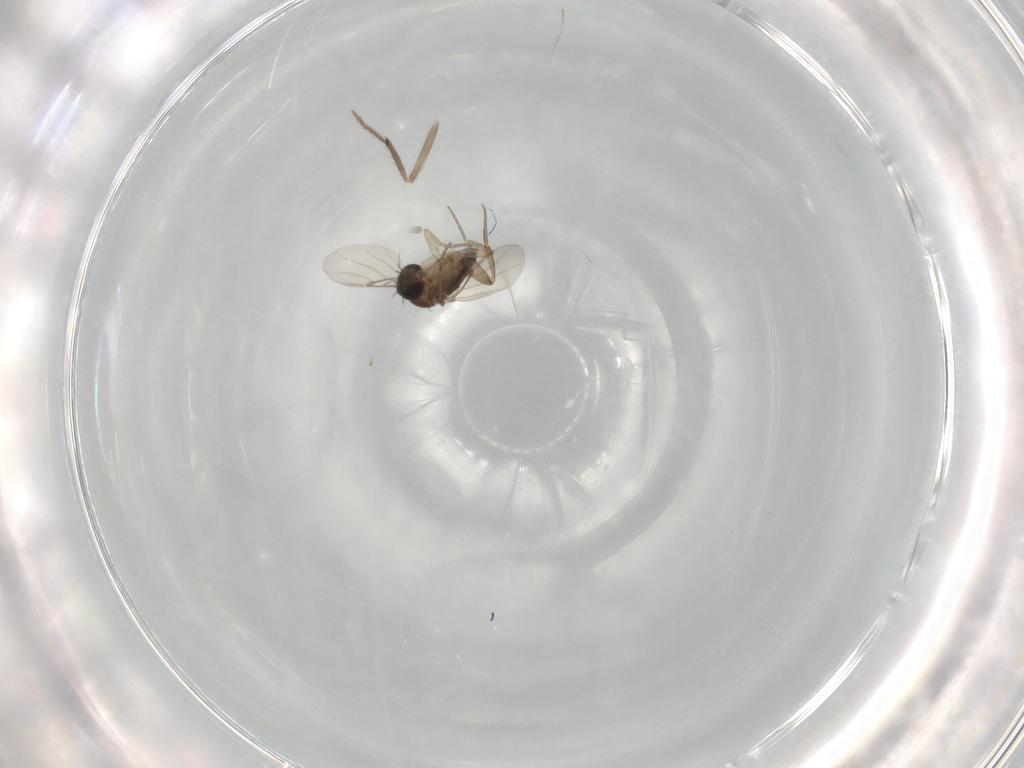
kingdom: Animalia
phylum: Arthropoda
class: Insecta
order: Diptera
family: Phoridae
